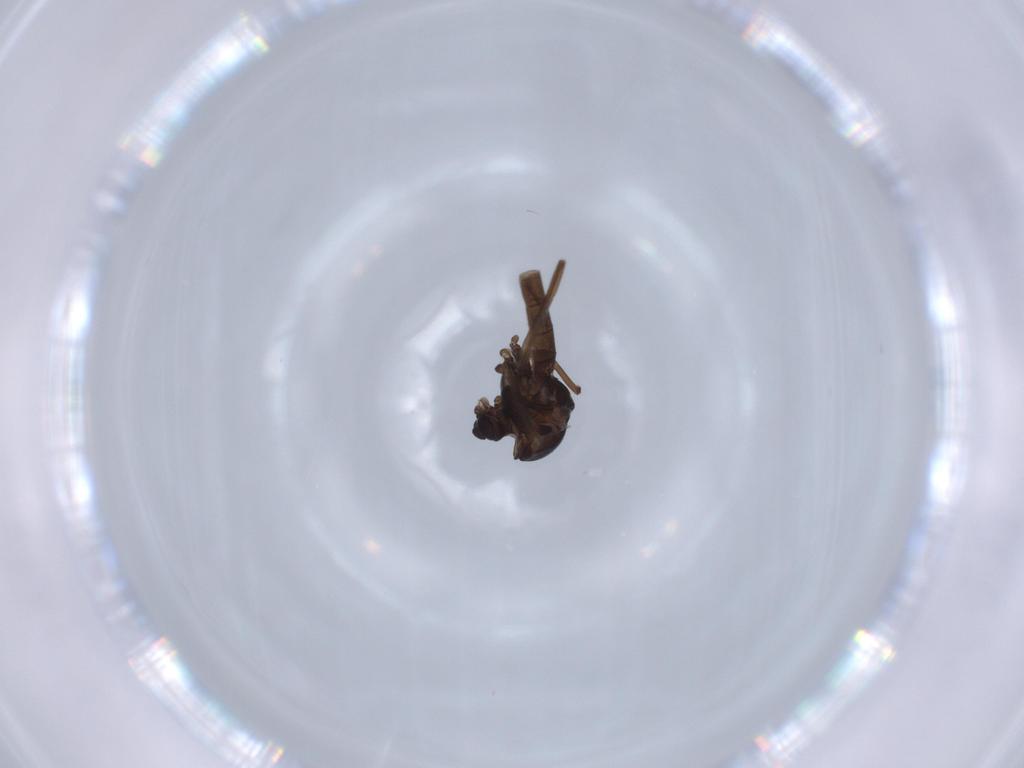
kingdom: Animalia
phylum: Arthropoda
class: Insecta
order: Diptera
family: Chironomidae
